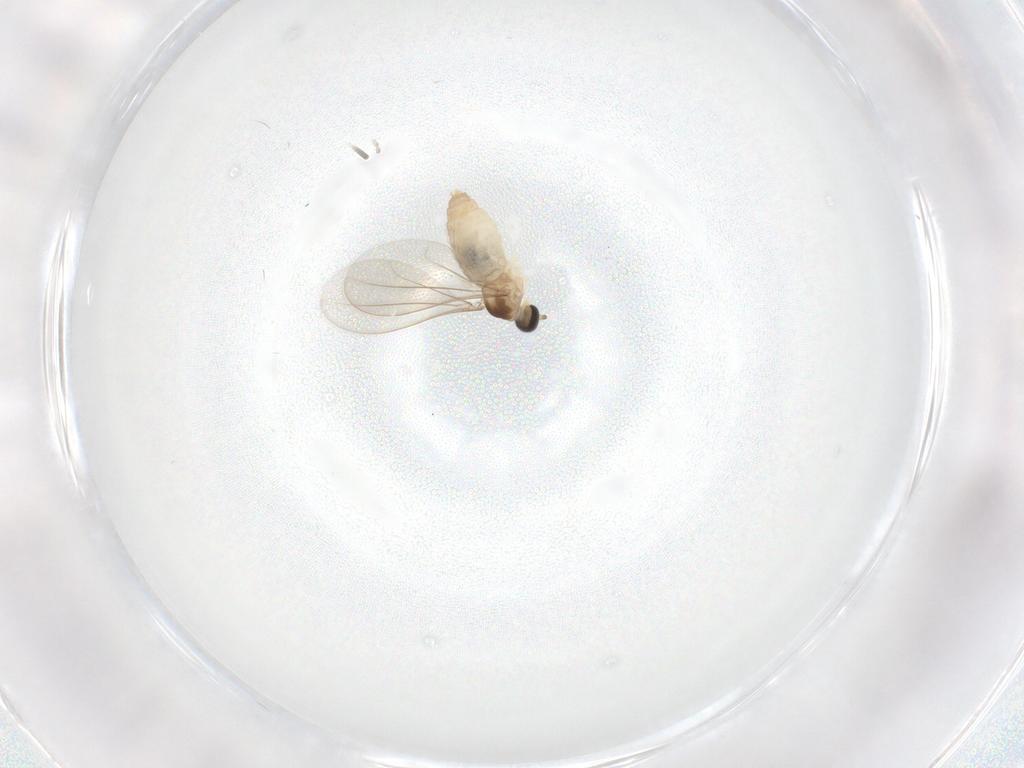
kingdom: Animalia
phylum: Arthropoda
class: Insecta
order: Diptera
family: Cecidomyiidae
